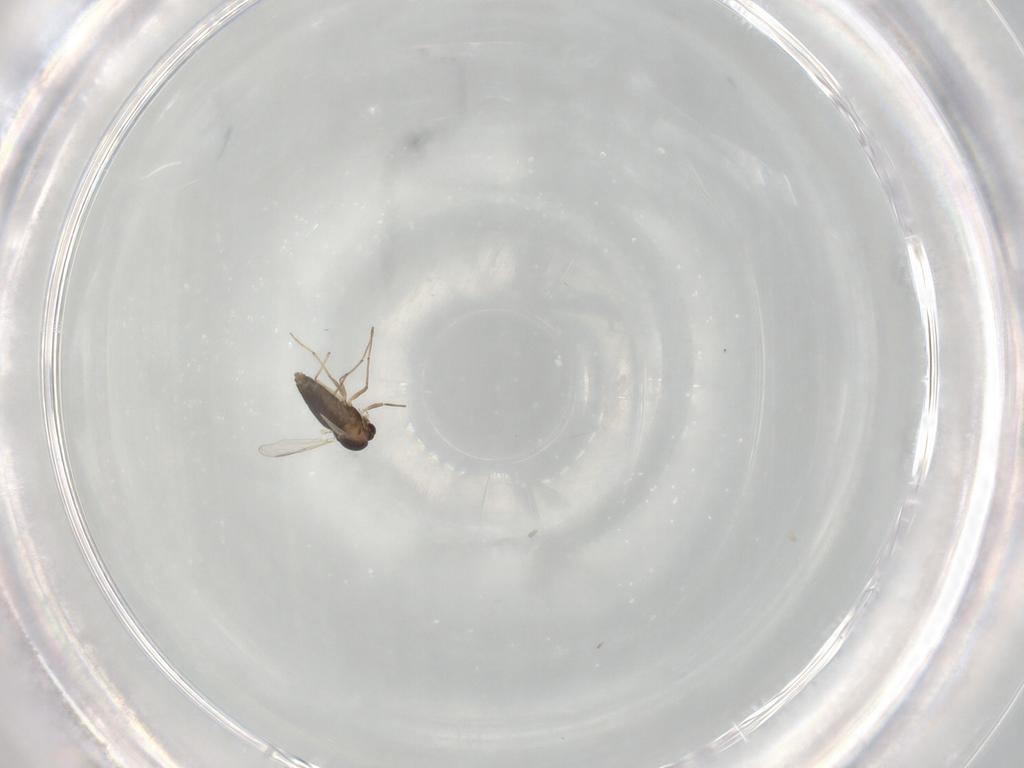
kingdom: Animalia
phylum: Arthropoda
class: Insecta
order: Diptera
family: Chironomidae
